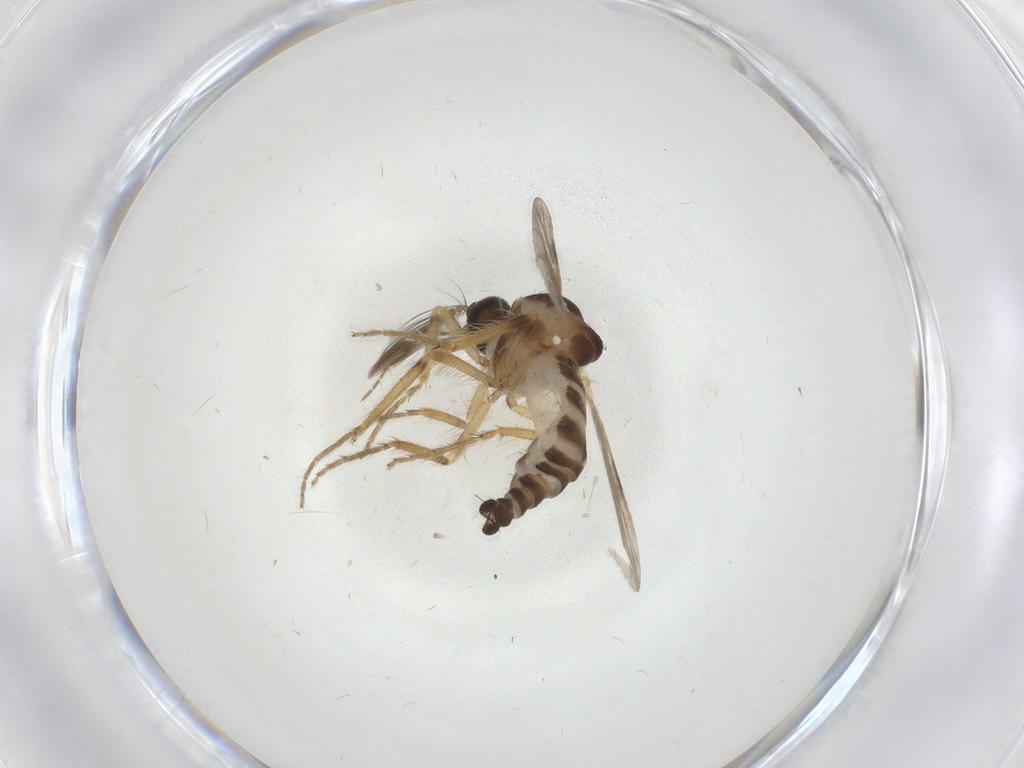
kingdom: Animalia
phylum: Arthropoda
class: Insecta
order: Diptera
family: Ceratopogonidae
